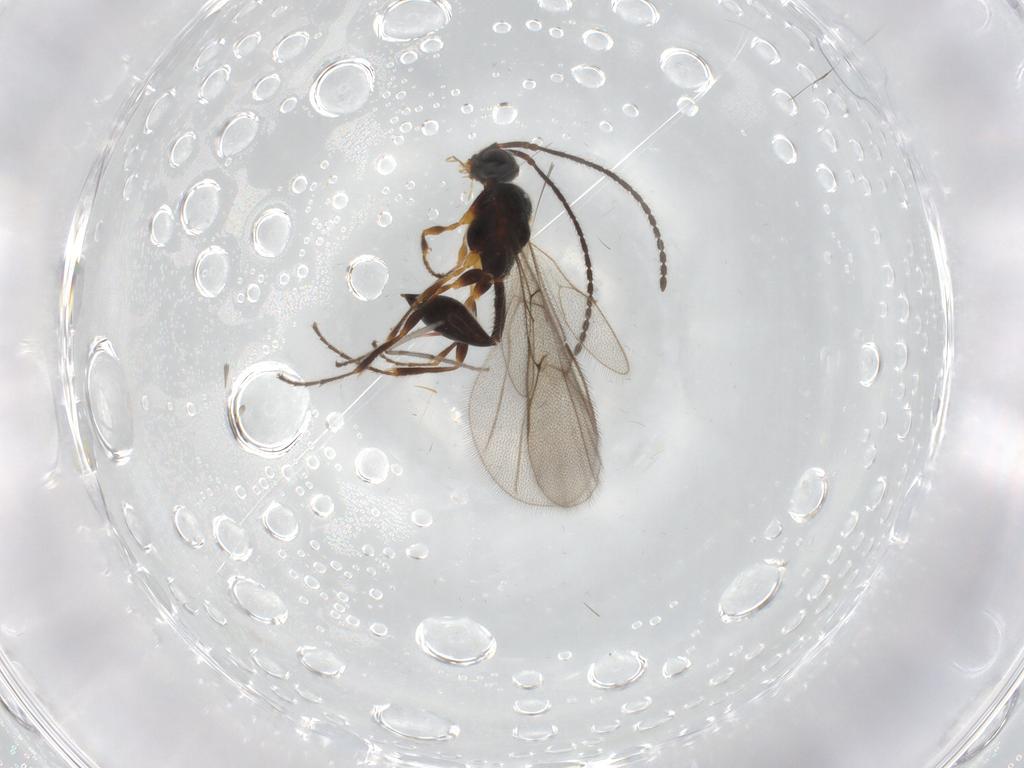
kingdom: Animalia
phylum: Arthropoda
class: Insecta
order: Hymenoptera
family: Diapriidae
